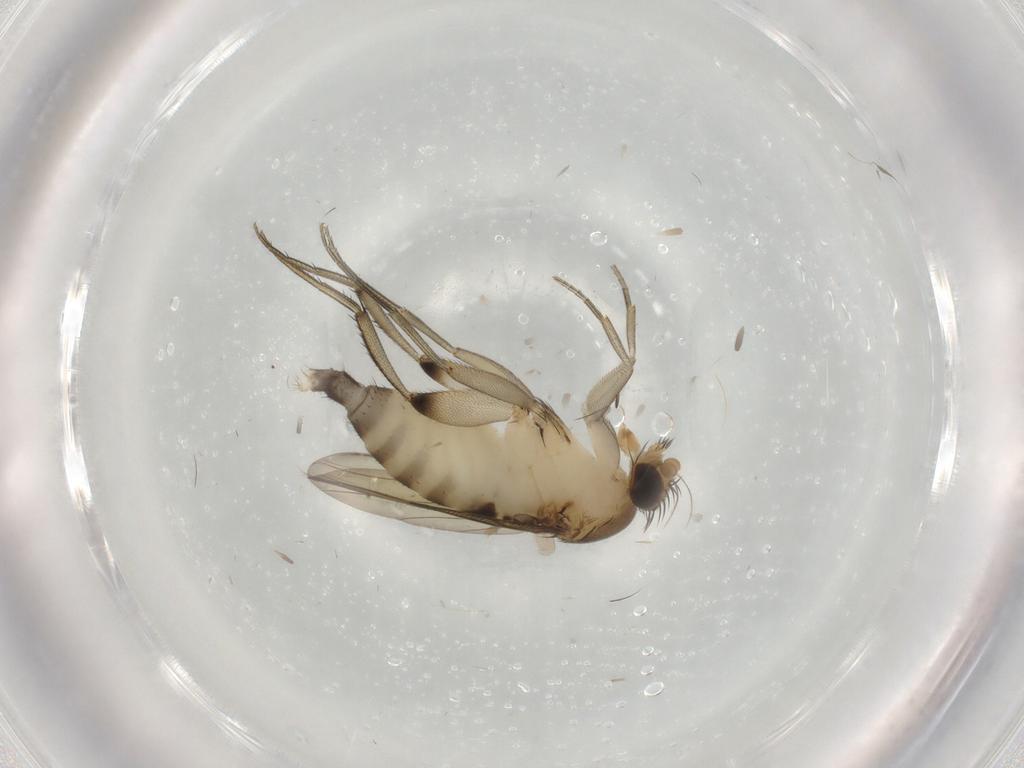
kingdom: Animalia
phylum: Arthropoda
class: Insecta
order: Diptera
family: Phoridae
